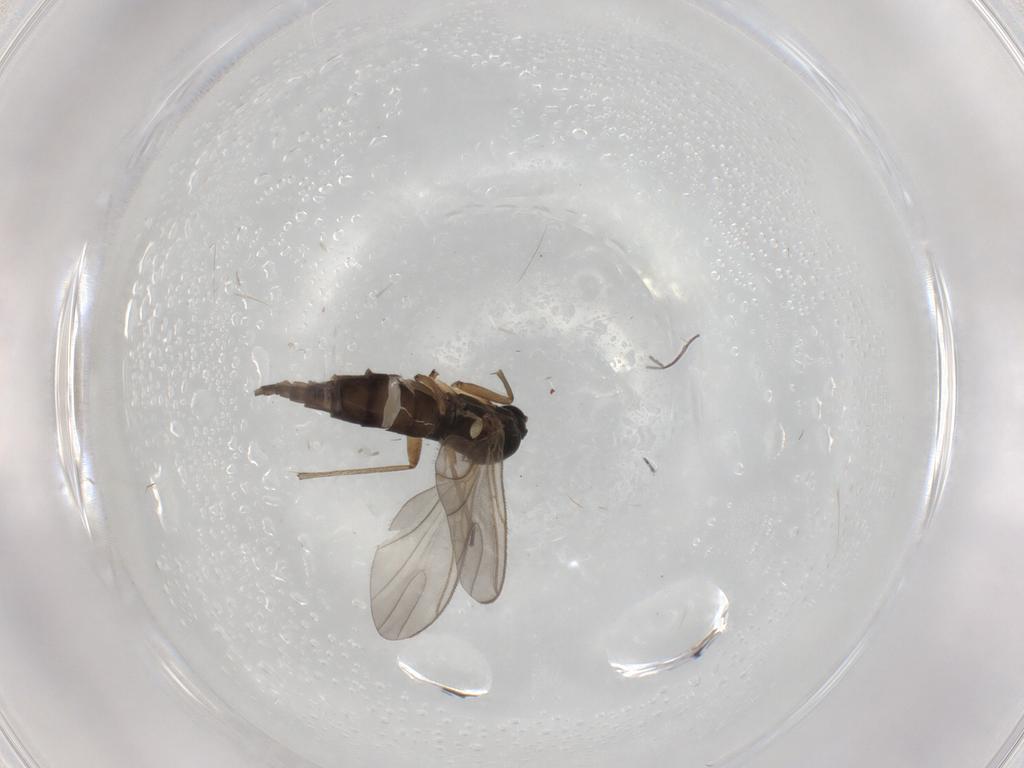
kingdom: Animalia
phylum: Arthropoda
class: Insecta
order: Diptera
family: Sciaridae
